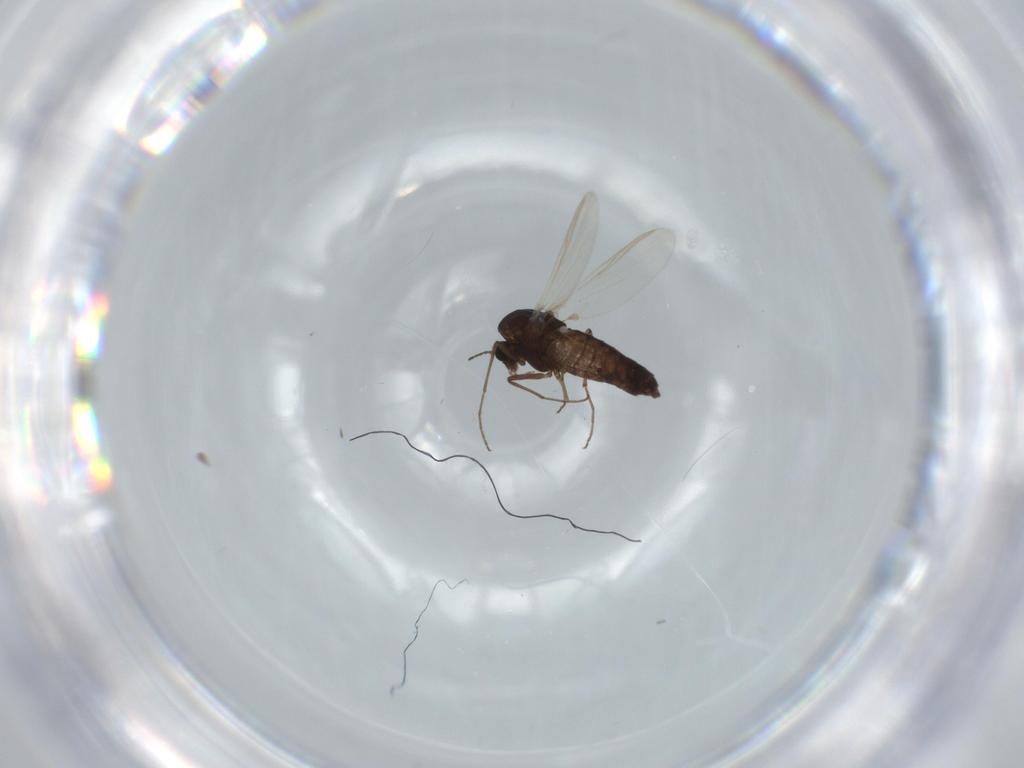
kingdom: Animalia
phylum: Arthropoda
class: Insecta
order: Diptera
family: Chironomidae
